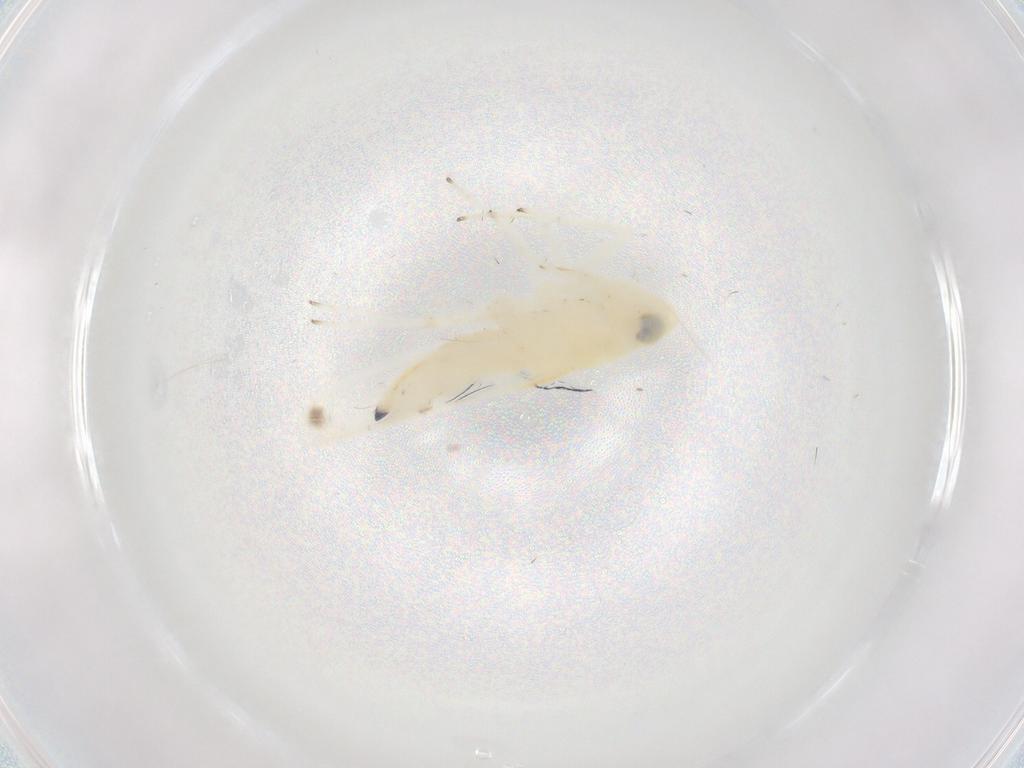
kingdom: Animalia
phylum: Arthropoda
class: Insecta
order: Hemiptera
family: Cicadellidae
